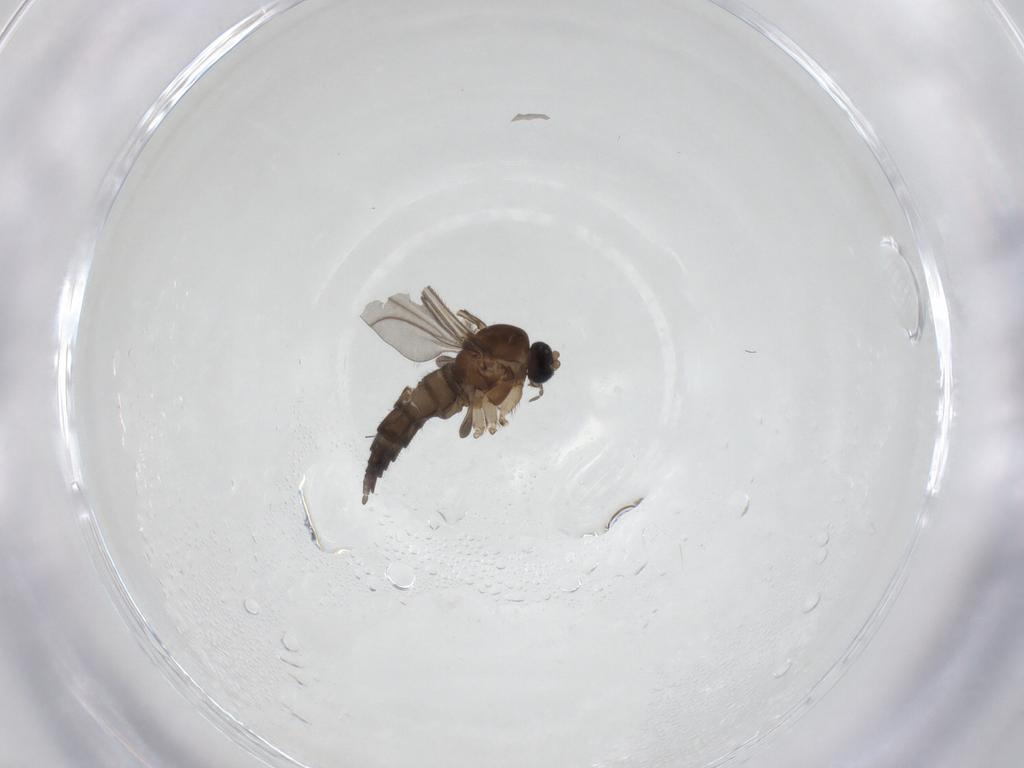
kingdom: Animalia
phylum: Arthropoda
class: Insecta
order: Diptera
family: Sciaridae
